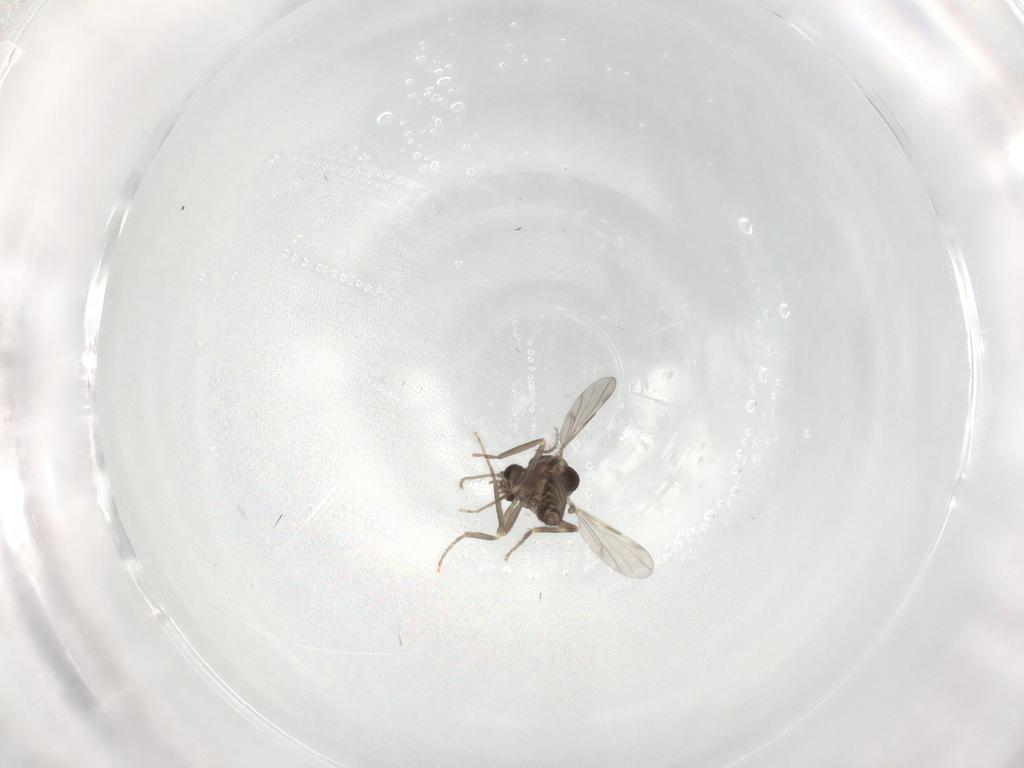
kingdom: Animalia
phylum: Arthropoda
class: Insecta
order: Diptera
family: Ceratopogonidae
